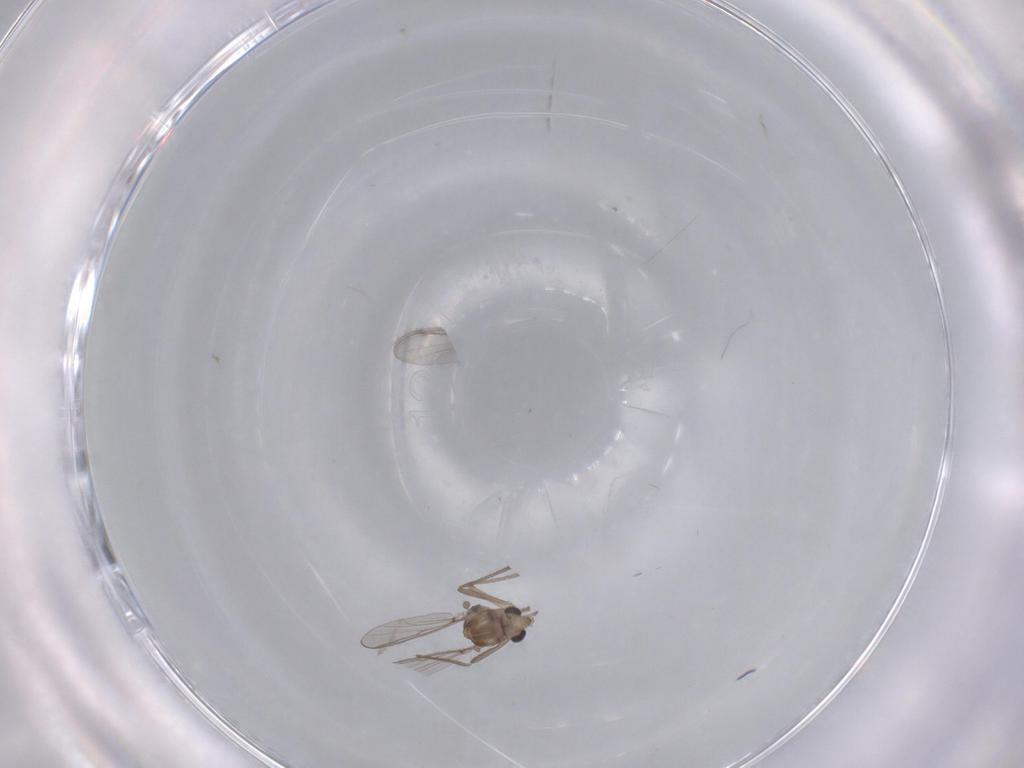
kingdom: Animalia
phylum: Arthropoda
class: Insecta
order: Diptera
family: Chironomidae
